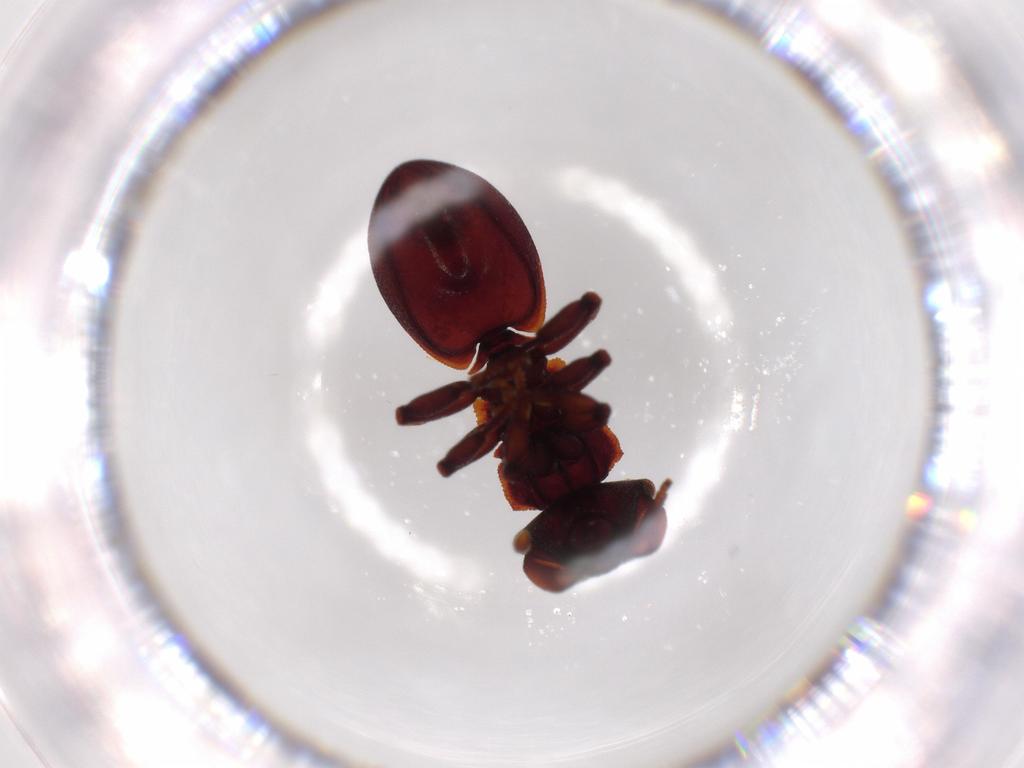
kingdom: Animalia
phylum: Arthropoda
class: Insecta
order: Hymenoptera
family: Formicidae
